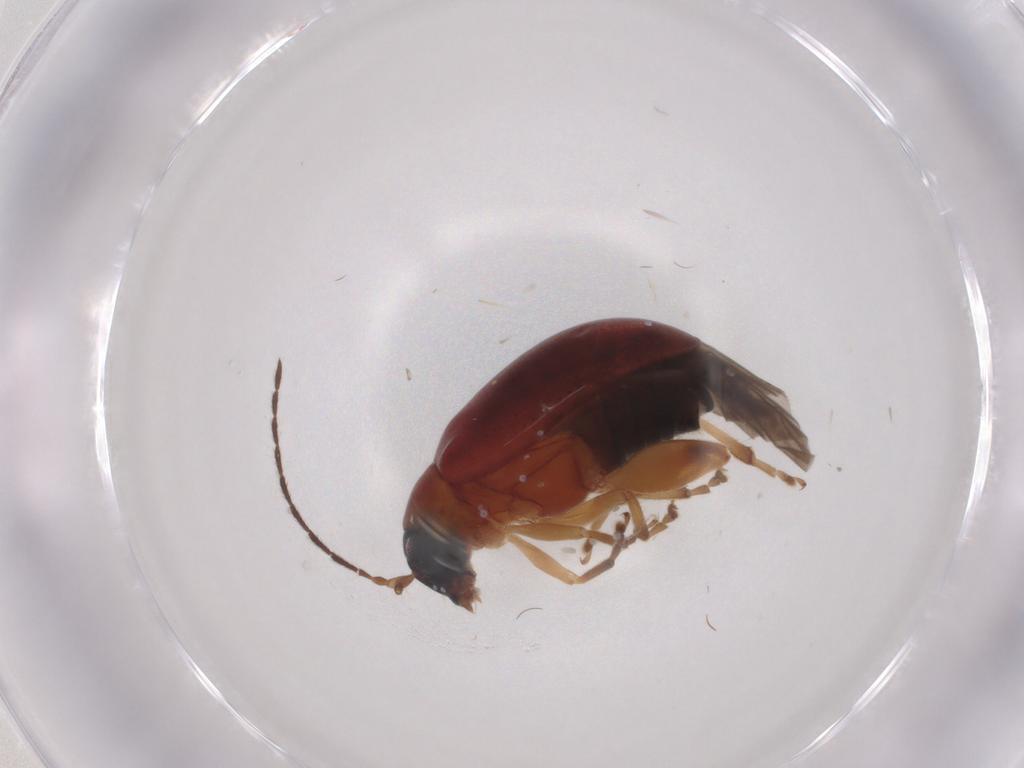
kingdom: Animalia
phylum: Arthropoda
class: Insecta
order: Coleoptera
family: Chrysomelidae
